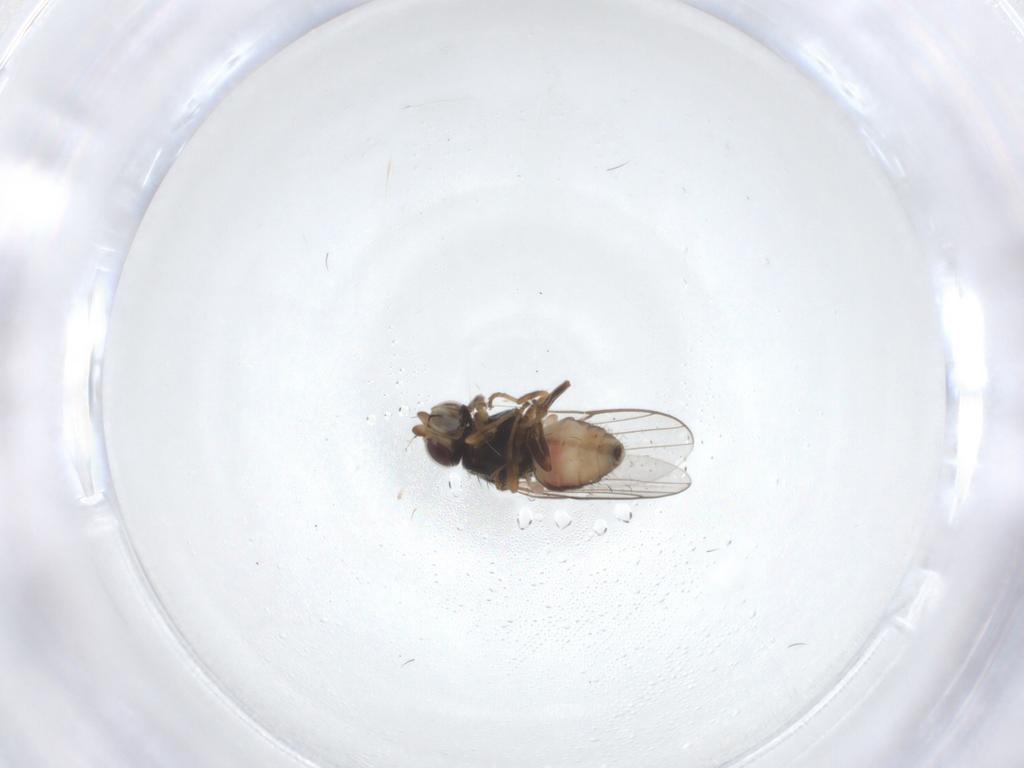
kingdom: Animalia
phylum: Arthropoda
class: Insecta
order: Diptera
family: Chloropidae
